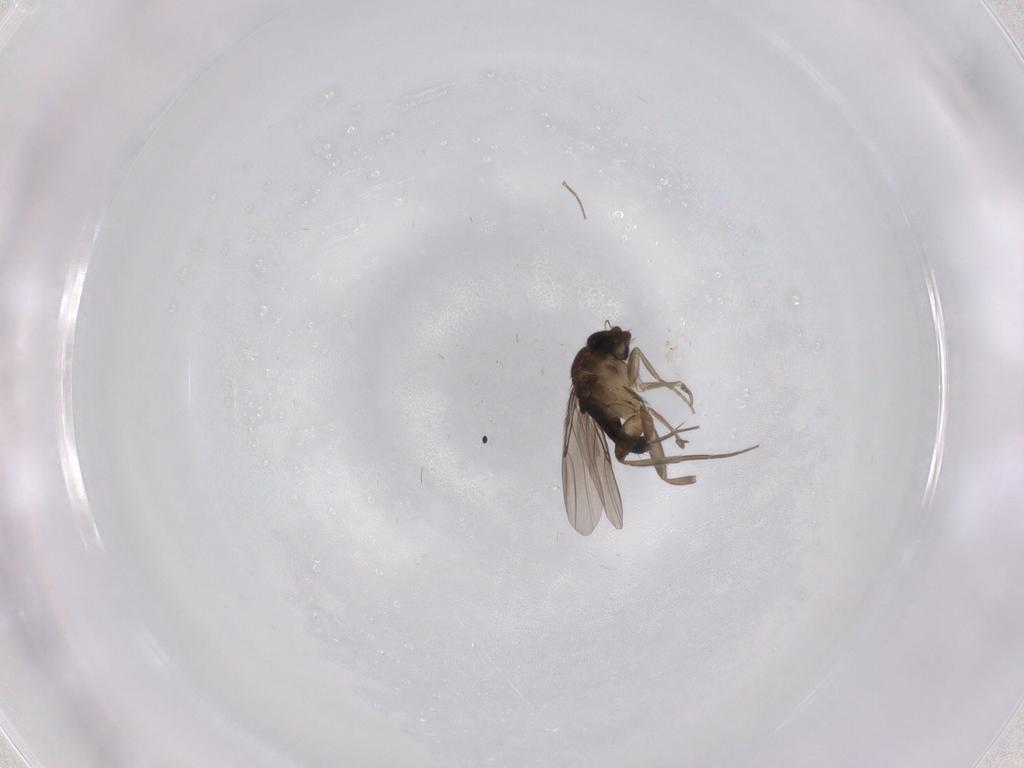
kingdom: Animalia
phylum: Arthropoda
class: Insecta
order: Diptera
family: Phoridae
